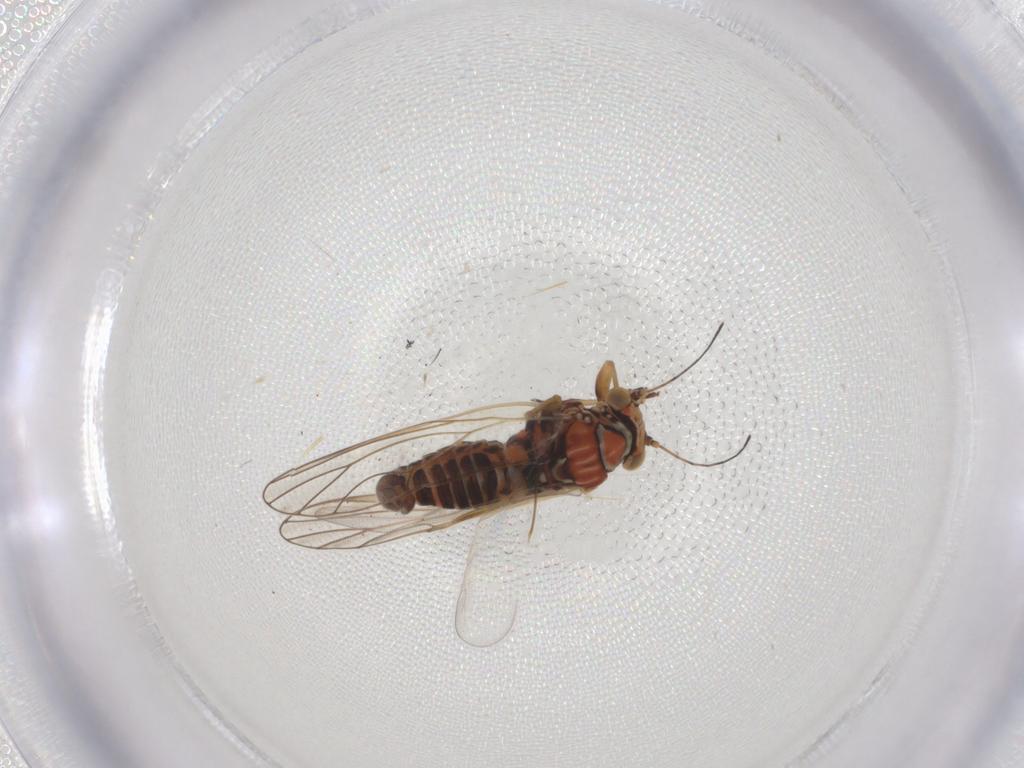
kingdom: Animalia
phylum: Arthropoda
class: Insecta
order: Hemiptera
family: Psyllidae
